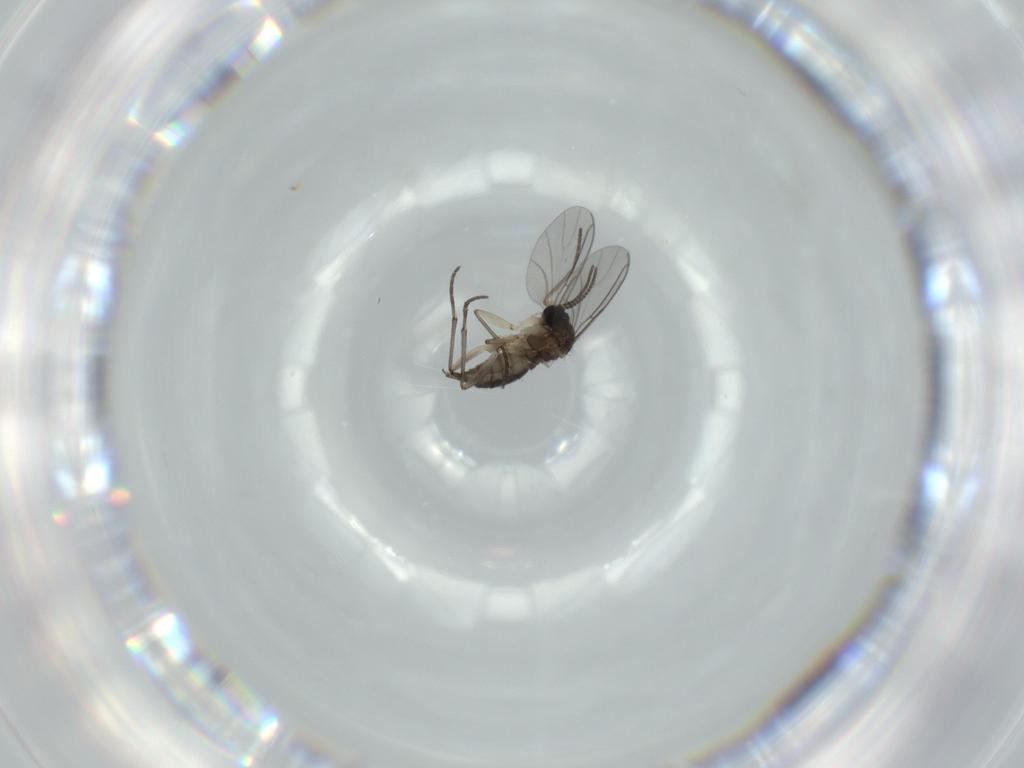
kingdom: Animalia
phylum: Arthropoda
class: Insecta
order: Diptera
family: Sciaridae
